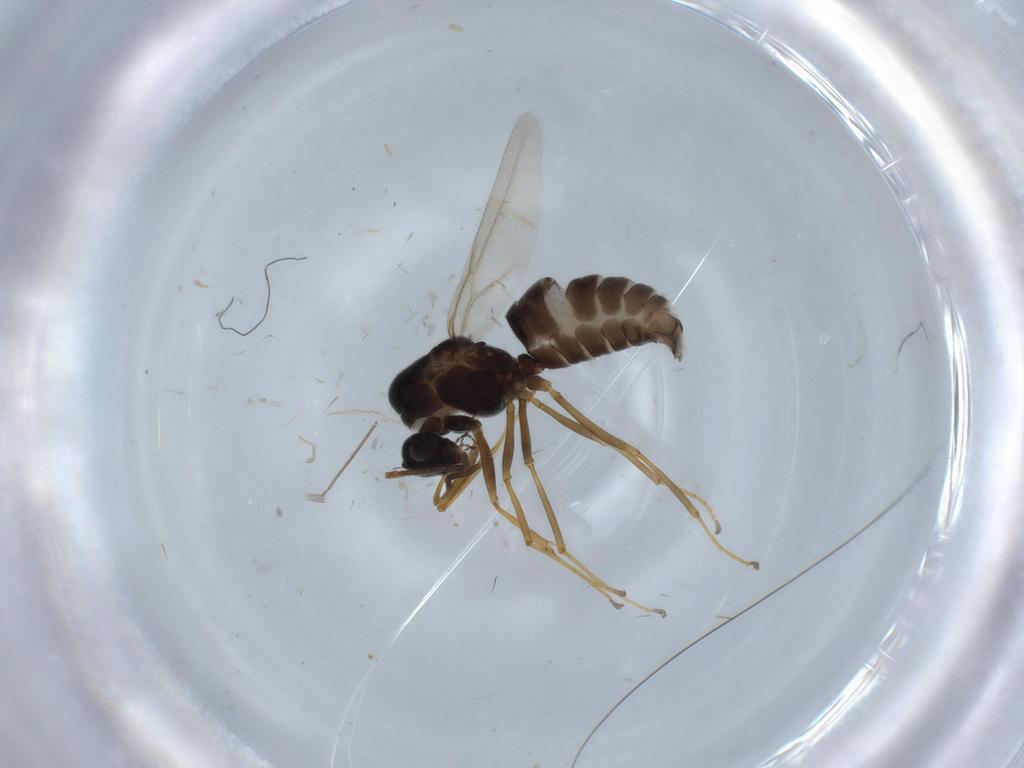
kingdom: Animalia
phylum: Arthropoda
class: Insecta
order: Hymenoptera
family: Formicidae
